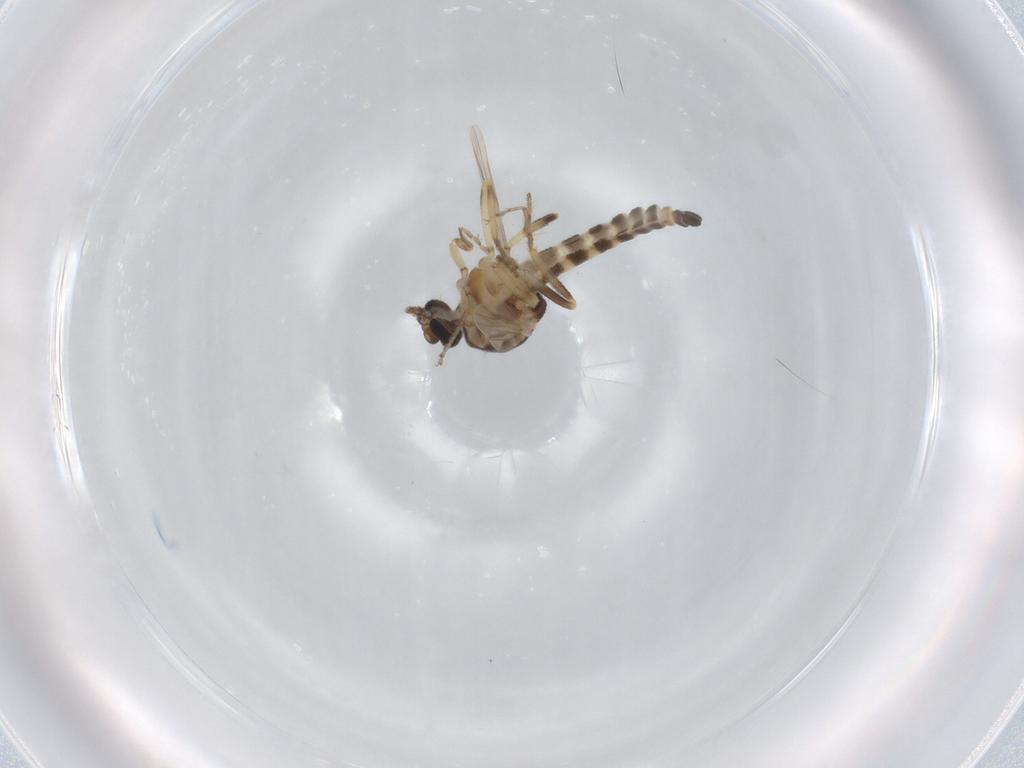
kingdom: Animalia
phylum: Arthropoda
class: Insecta
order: Diptera
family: Ceratopogonidae
